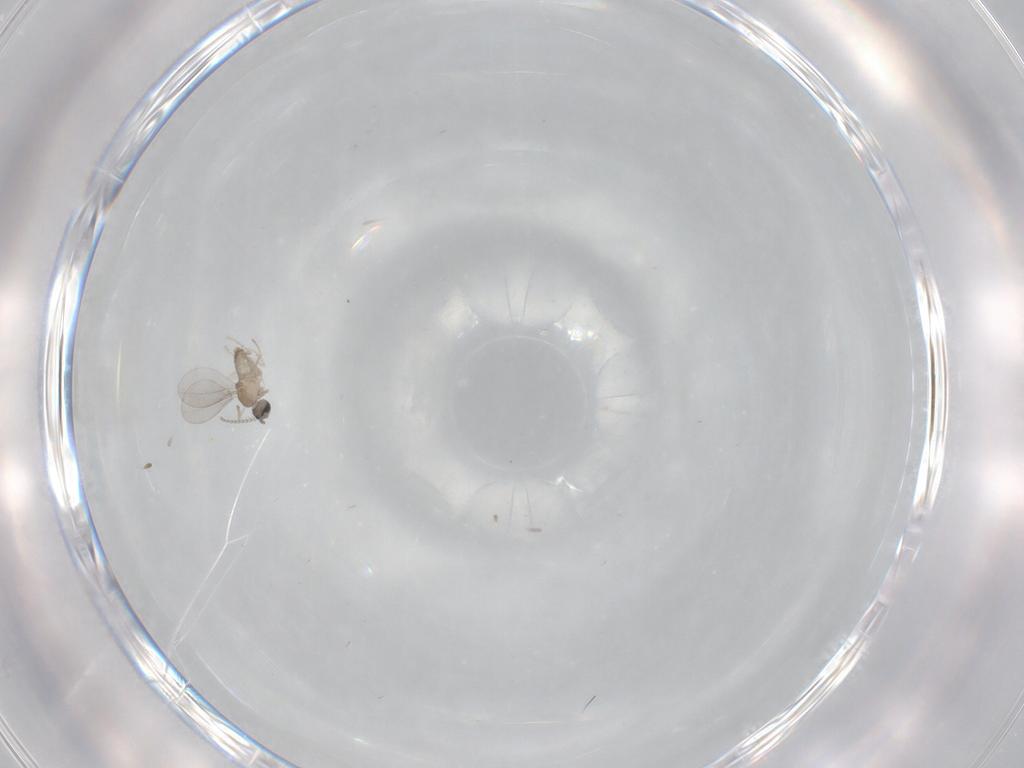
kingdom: Animalia
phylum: Arthropoda
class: Insecta
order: Diptera
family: Cecidomyiidae
